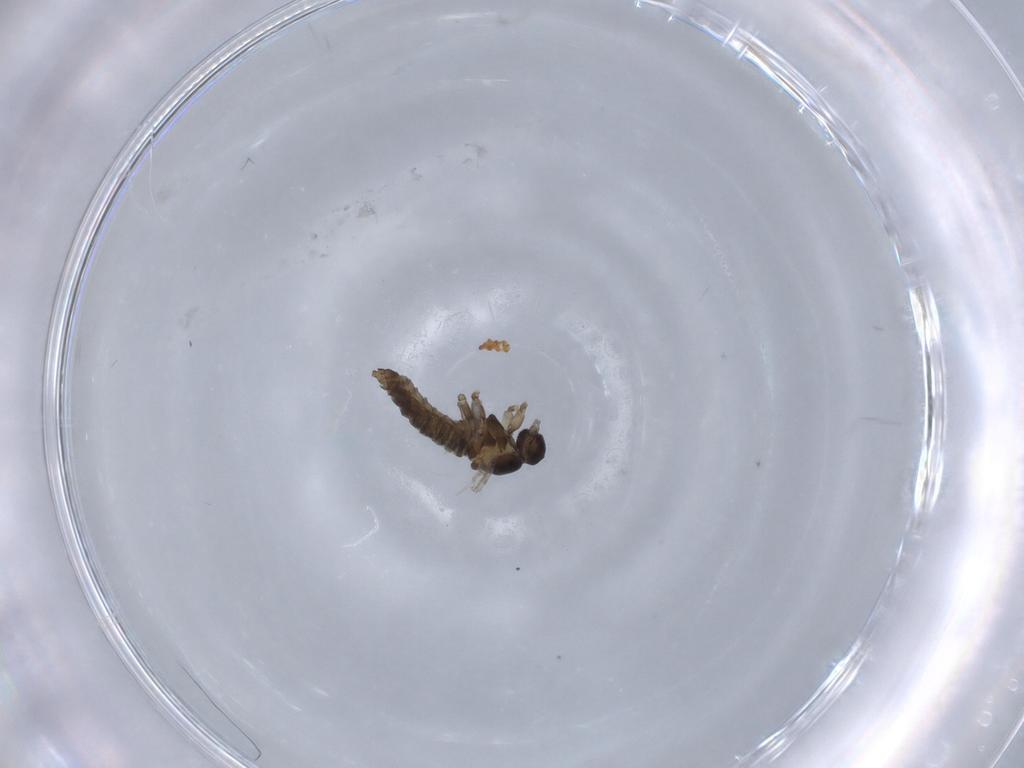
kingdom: Animalia
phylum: Arthropoda
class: Insecta
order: Diptera
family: Cecidomyiidae
